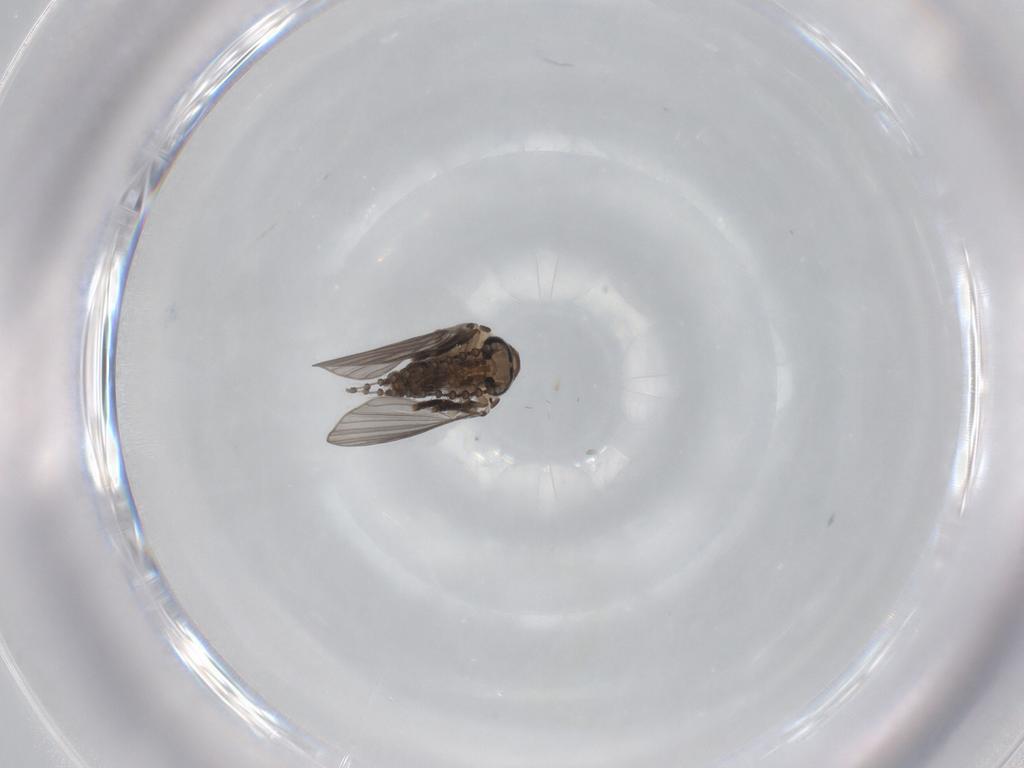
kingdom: Animalia
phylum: Arthropoda
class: Insecta
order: Diptera
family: Psychodidae
